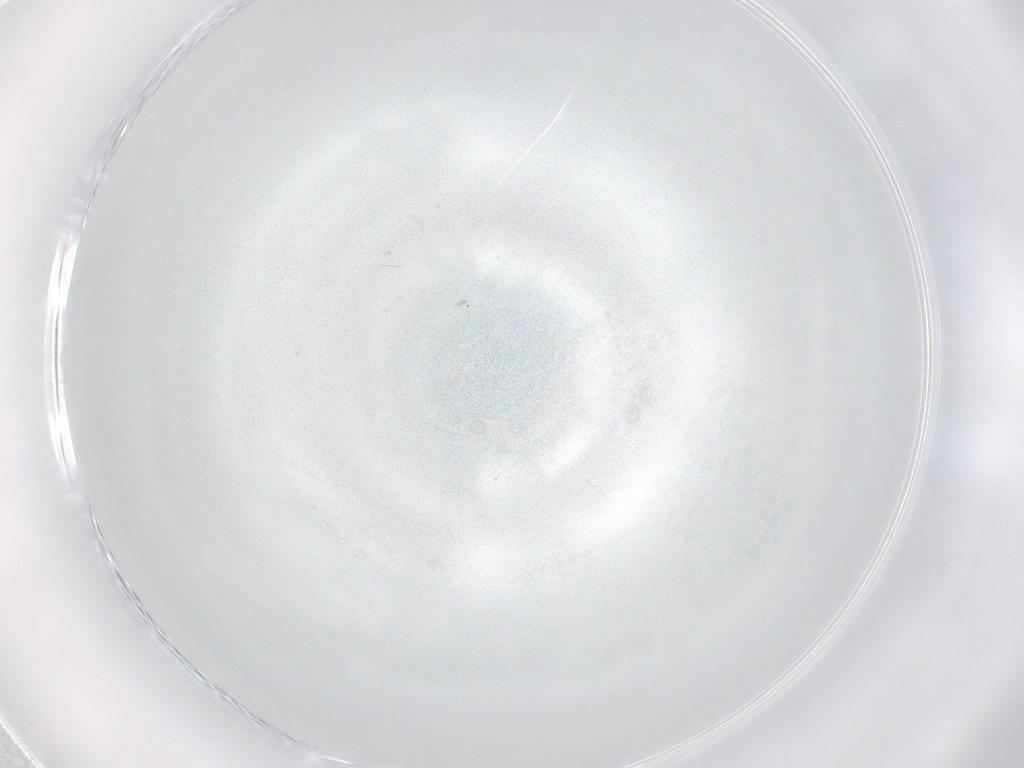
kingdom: Animalia
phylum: Arthropoda
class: Insecta
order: Diptera
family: Ceratopogonidae
